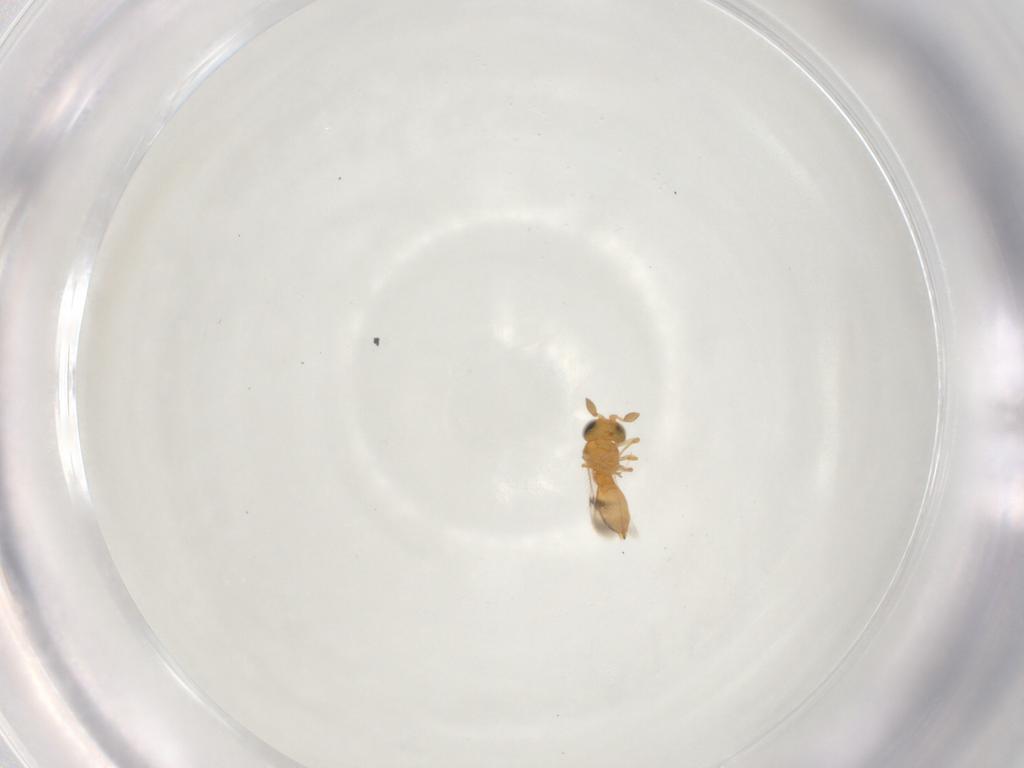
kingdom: Animalia
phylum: Arthropoda
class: Insecta
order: Hymenoptera
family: Scelionidae
